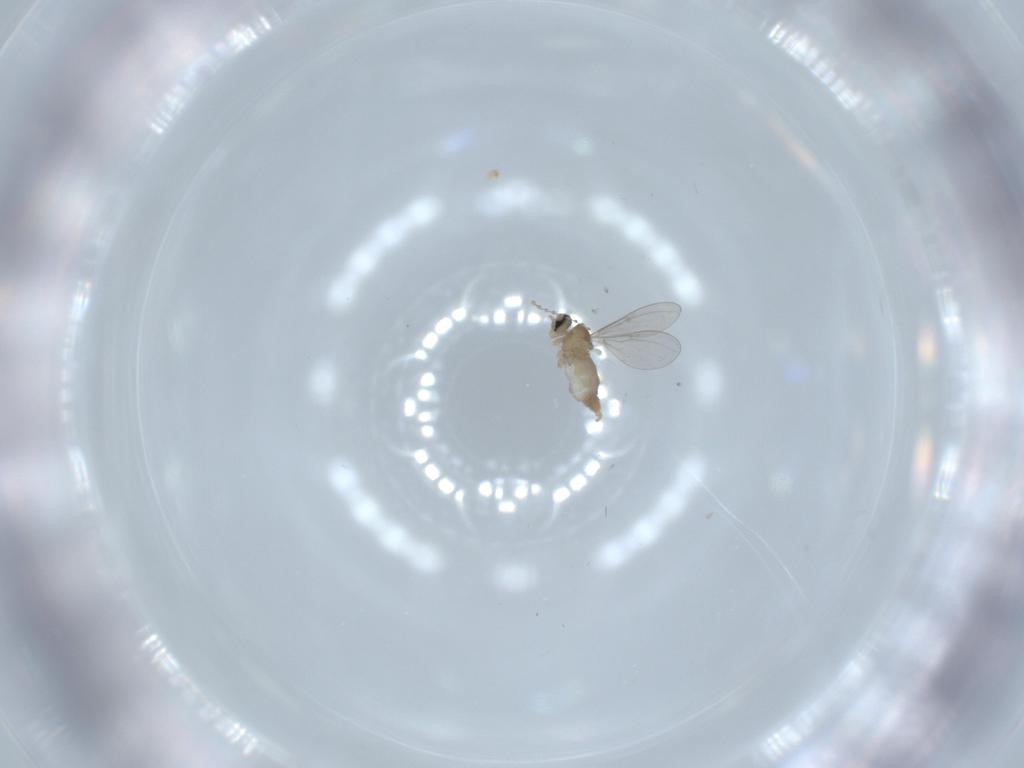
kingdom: Animalia
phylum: Arthropoda
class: Insecta
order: Diptera
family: Cecidomyiidae
